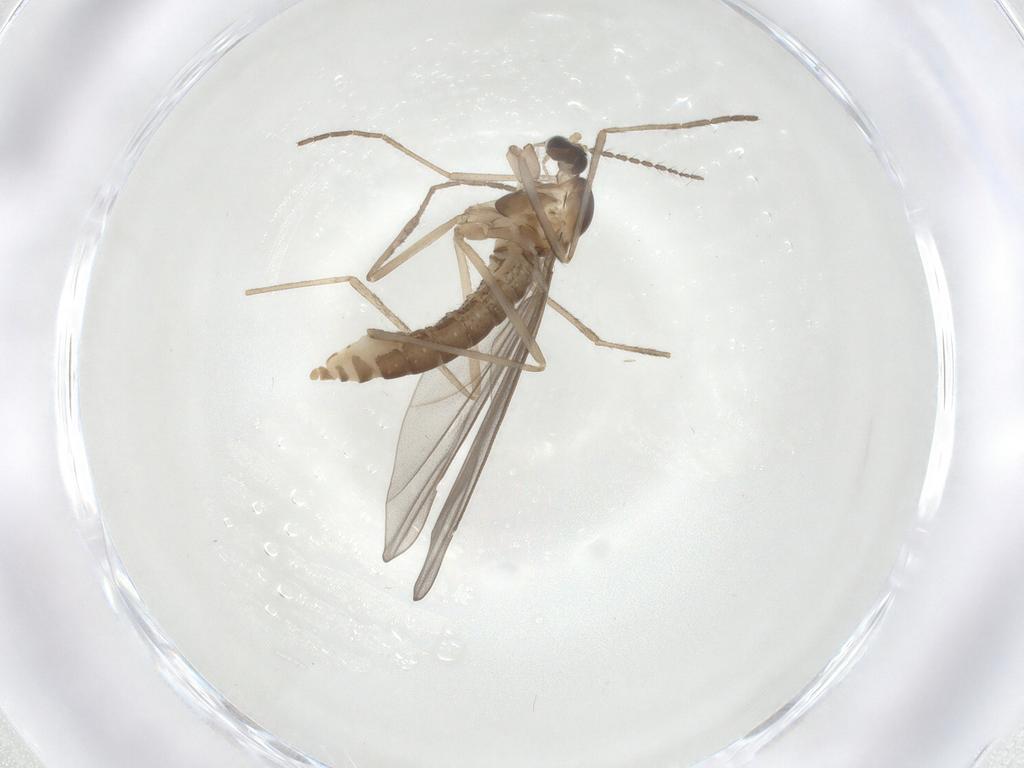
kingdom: Animalia
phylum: Arthropoda
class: Insecta
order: Diptera
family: Cecidomyiidae
